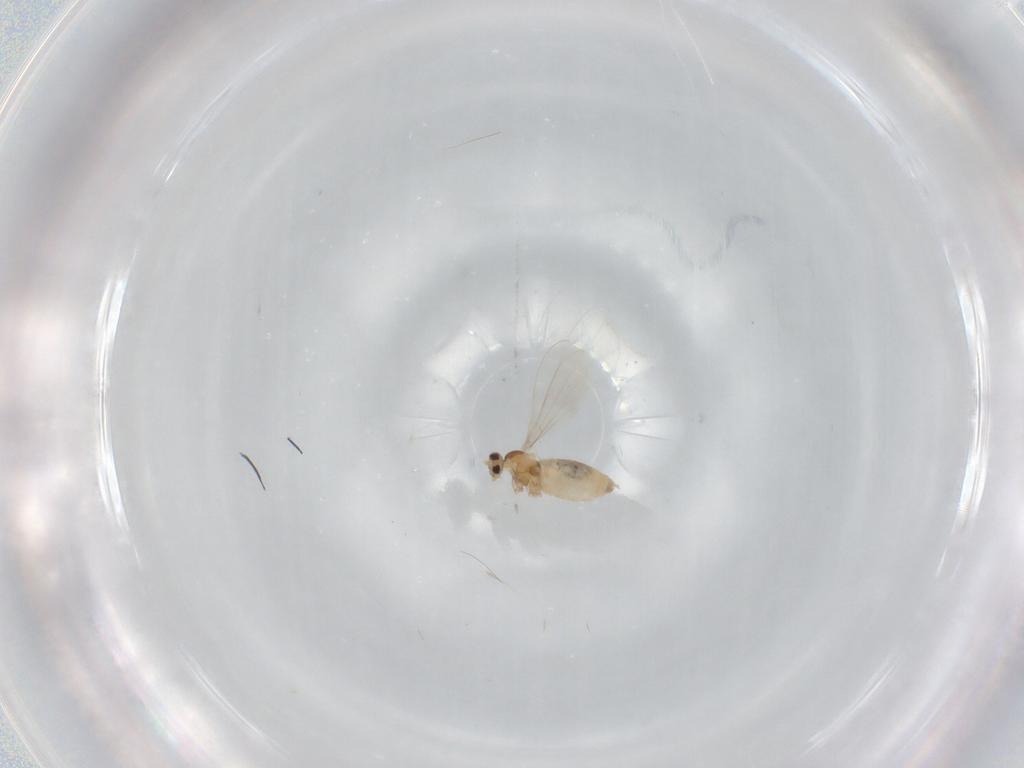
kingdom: Animalia
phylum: Arthropoda
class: Insecta
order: Diptera
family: Cecidomyiidae
